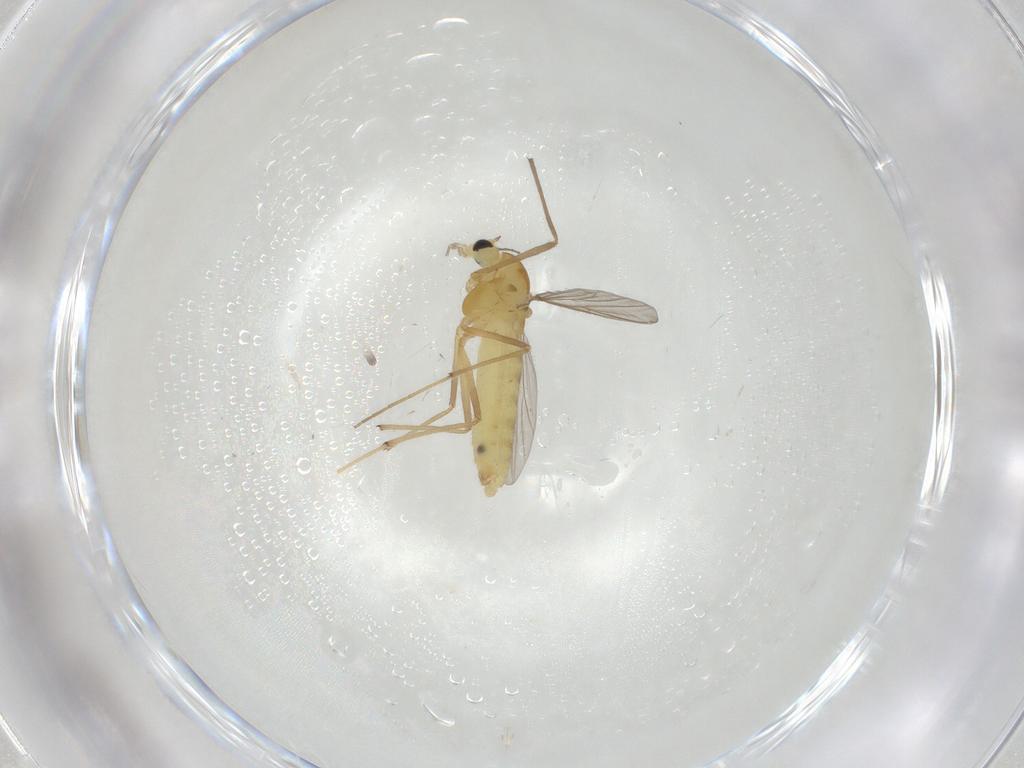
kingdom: Animalia
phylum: Arthropoda
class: Insecta
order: Diptera
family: Chironomidae
